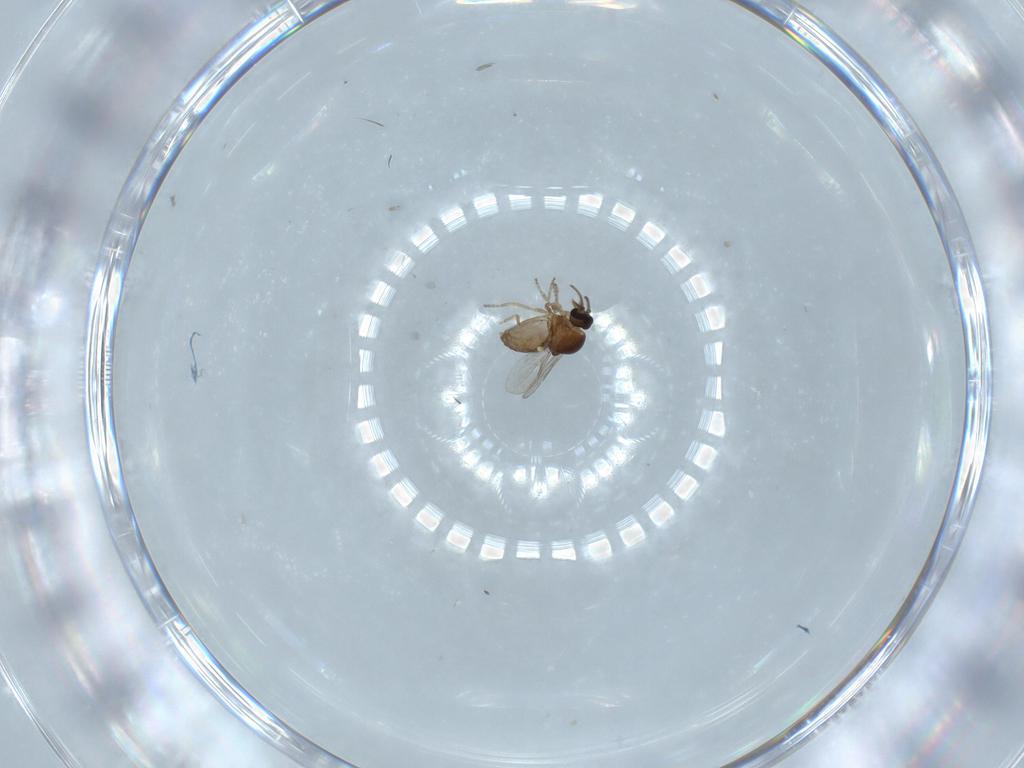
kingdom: Animalia
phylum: Arthropoda
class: Insecta
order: Diptera
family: Dolichopodidae
